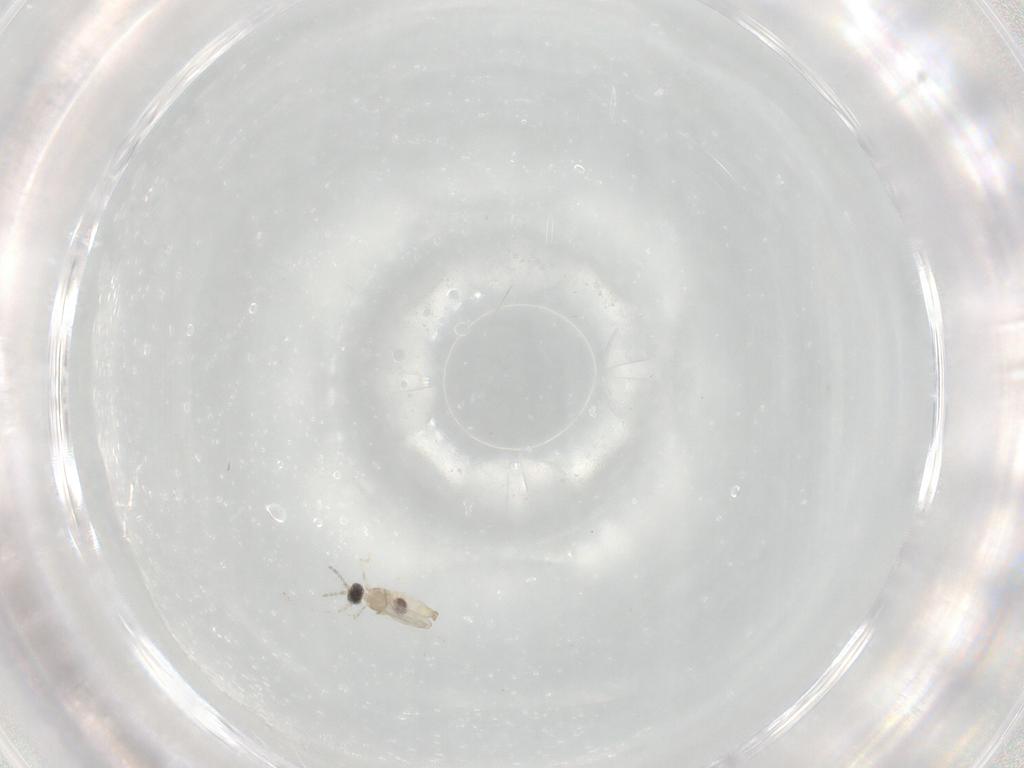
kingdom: Animalia
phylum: Arthropoda
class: Insecta
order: Diptera
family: Cecidomyiidae
